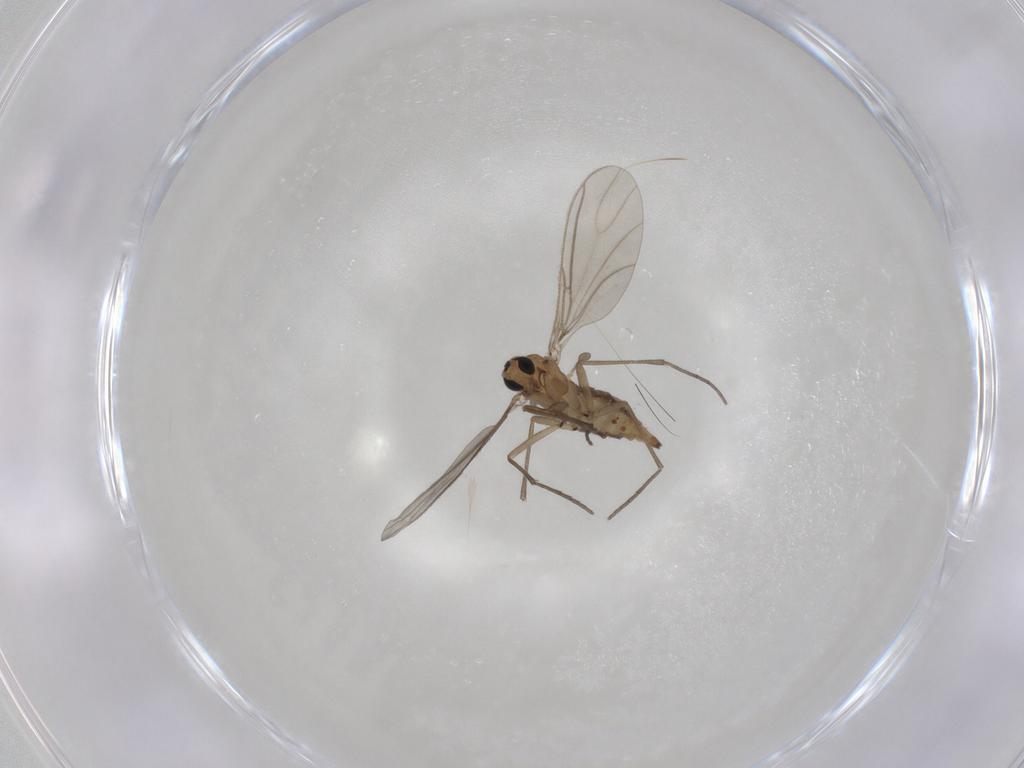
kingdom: Animalia
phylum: Arthropoda
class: Insecta
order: Diptera
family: Sciaridae
